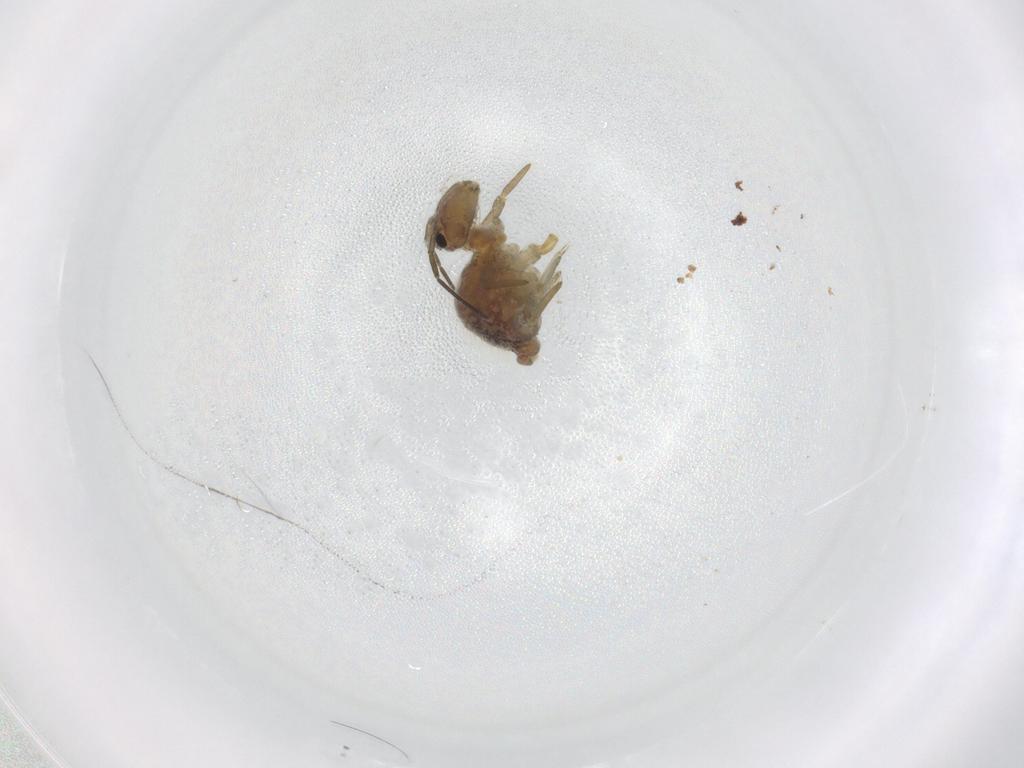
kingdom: Animalia
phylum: Arthropoda
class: Collembola
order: Symphypleona
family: Sminthuridae
